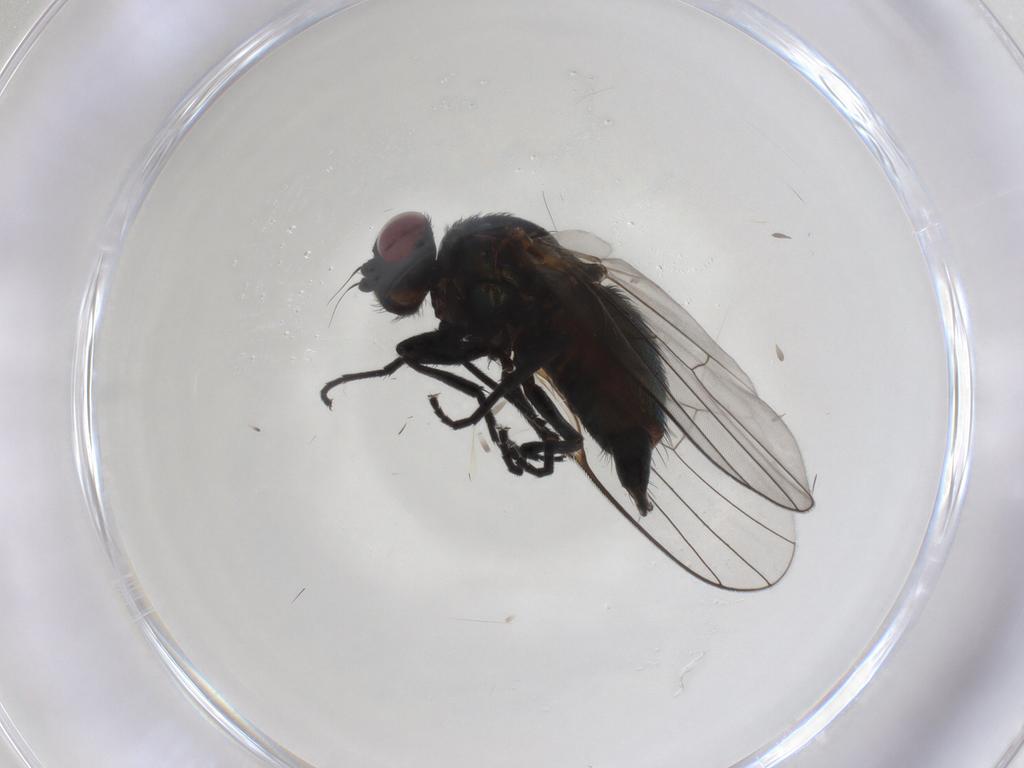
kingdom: Animalia
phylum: Arthropoda
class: Insecta
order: Diptera
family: Sphaeroceridae
